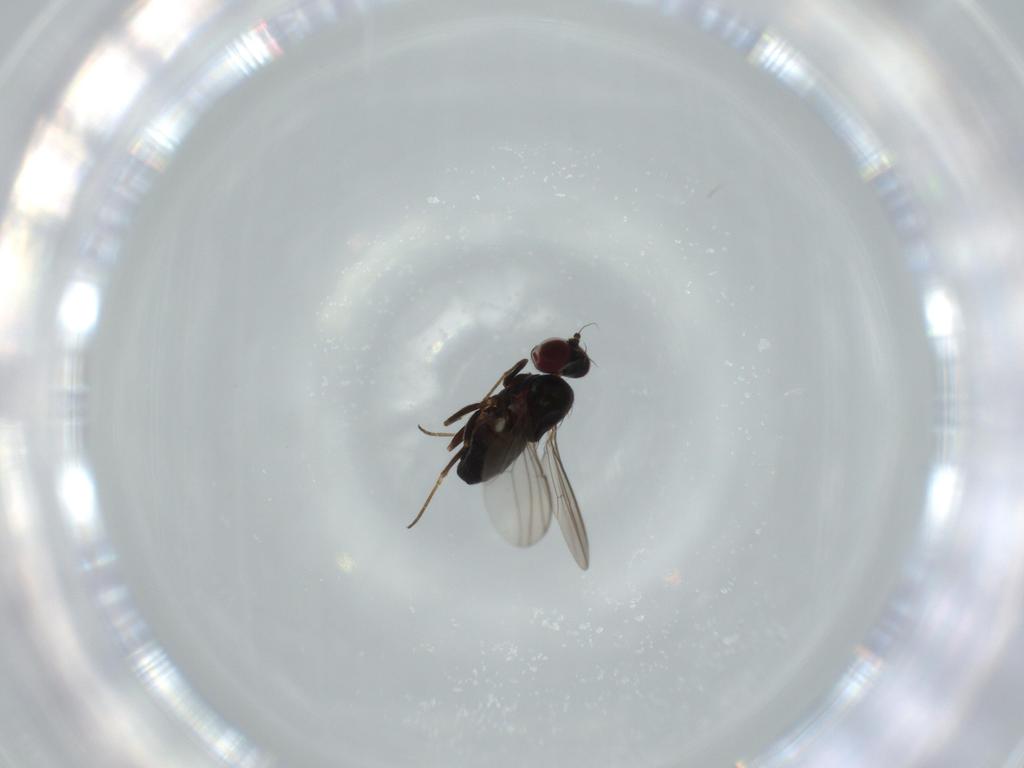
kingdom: Animalia
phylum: Arthropoda
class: Insecta
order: Diptera
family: Dolichopodidae
